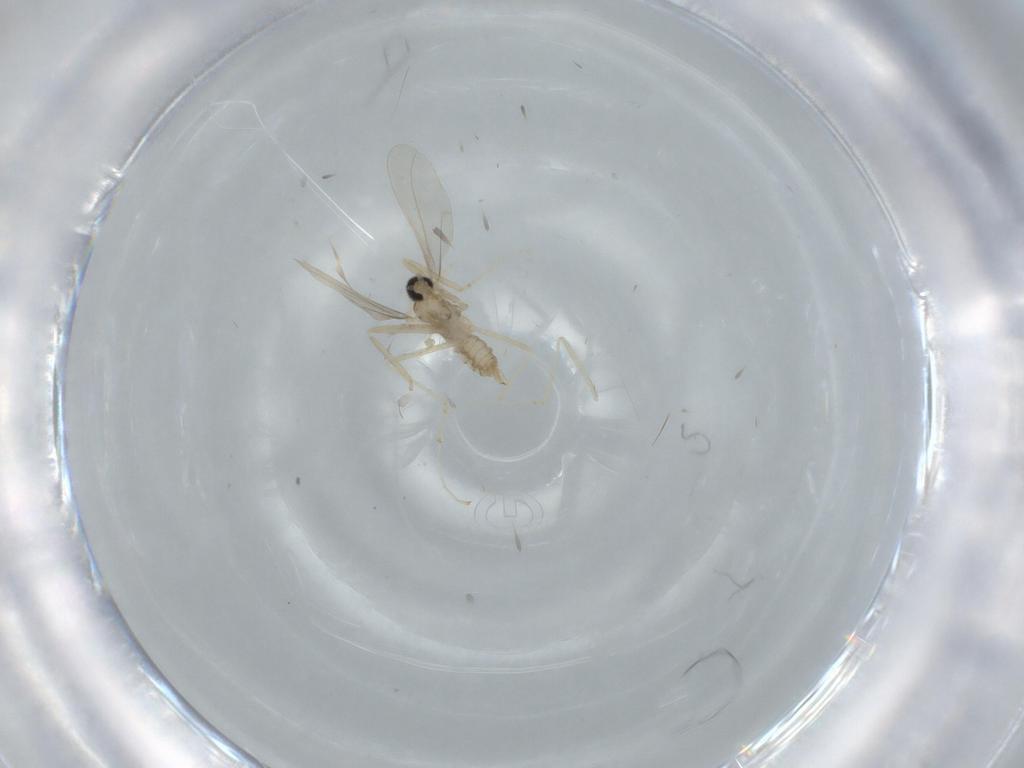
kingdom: Animalia
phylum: Arthropoda
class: Insecta
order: Diptera
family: Cecidomyiidae
